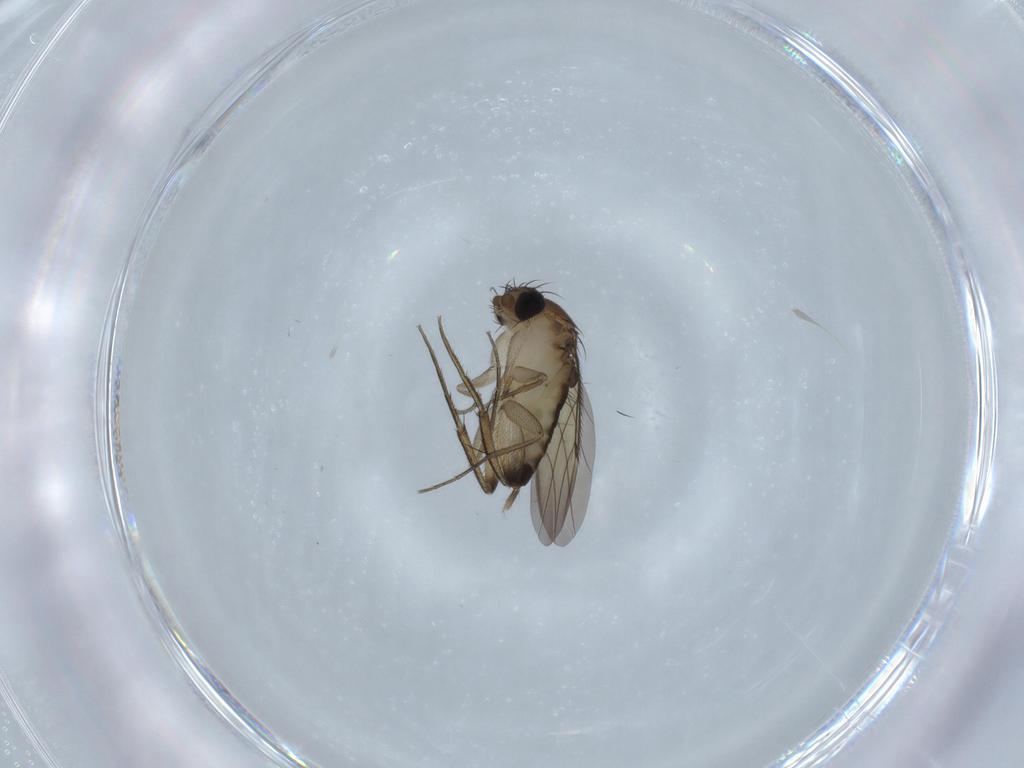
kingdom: Animalia
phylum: Arthropoda
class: Insecta
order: Diptera
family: Phoridae
